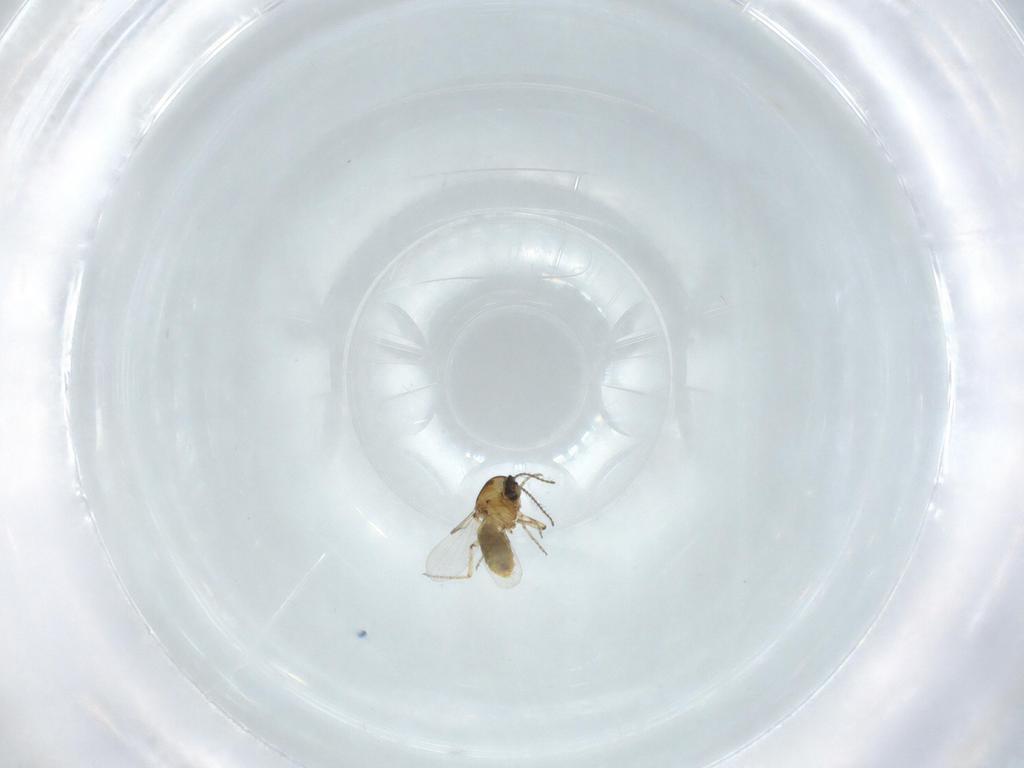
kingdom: Animalia
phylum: Arthropoda
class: Insecta
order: Diptera
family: Ceratopogonidae
